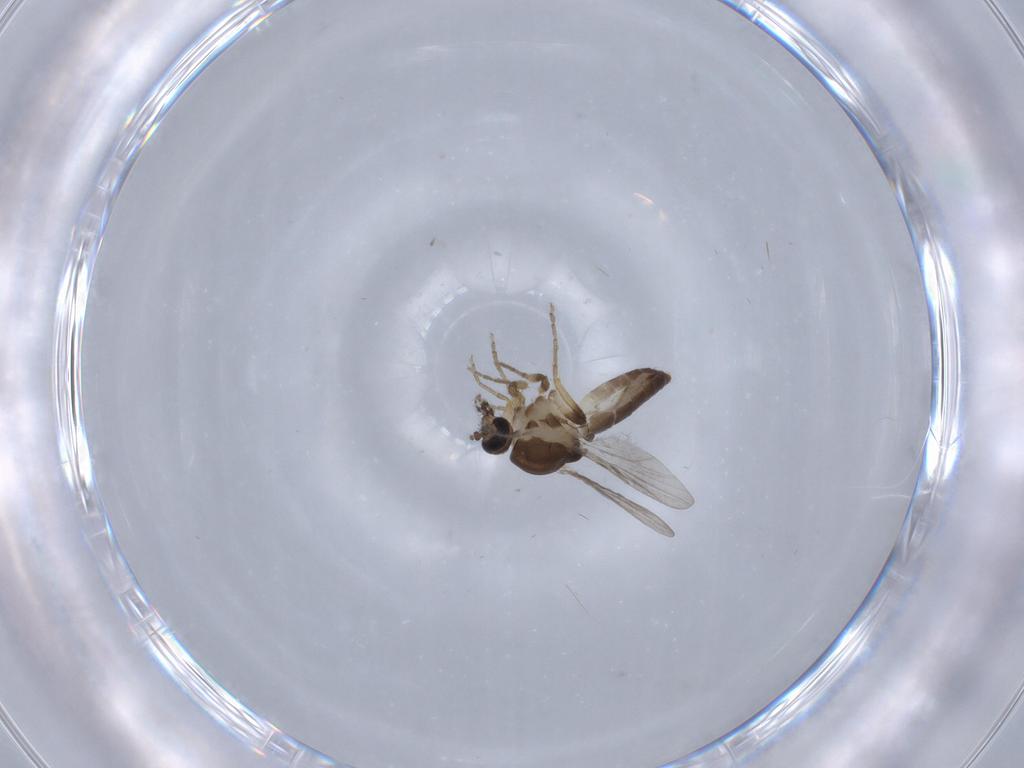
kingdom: Animalia
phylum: Arthropoda
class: Insecta
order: Diptera
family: Ceratopogonidae
